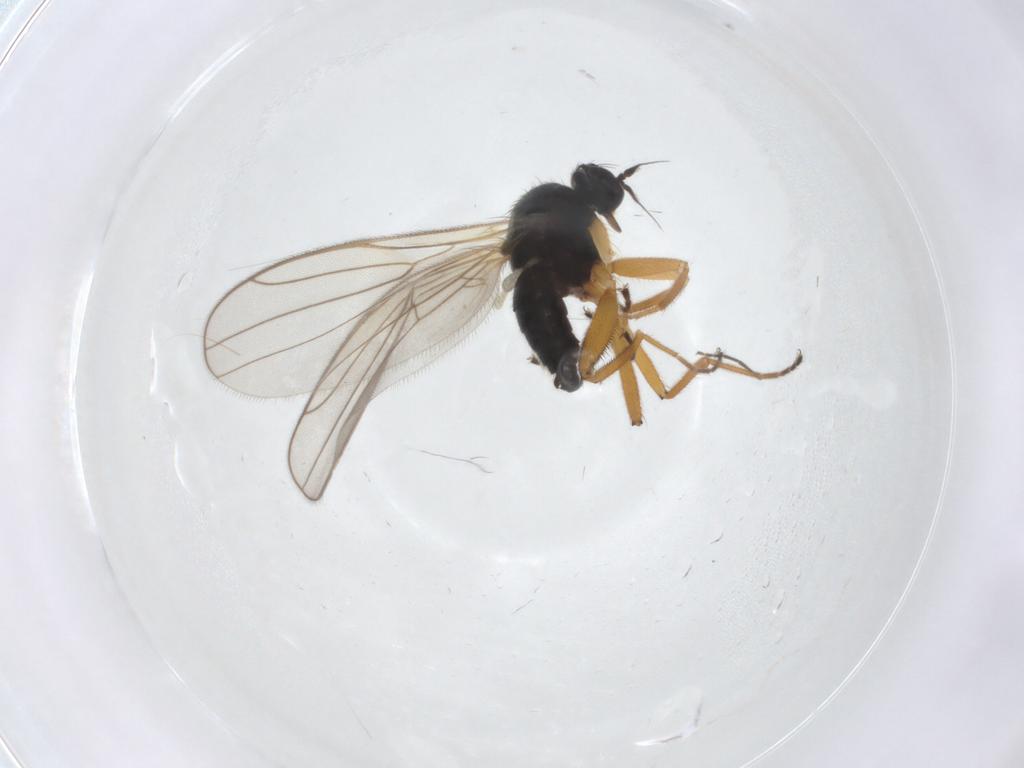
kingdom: Animalia
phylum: Arthropoda
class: Insecta
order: Diptera
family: Hybotidae
